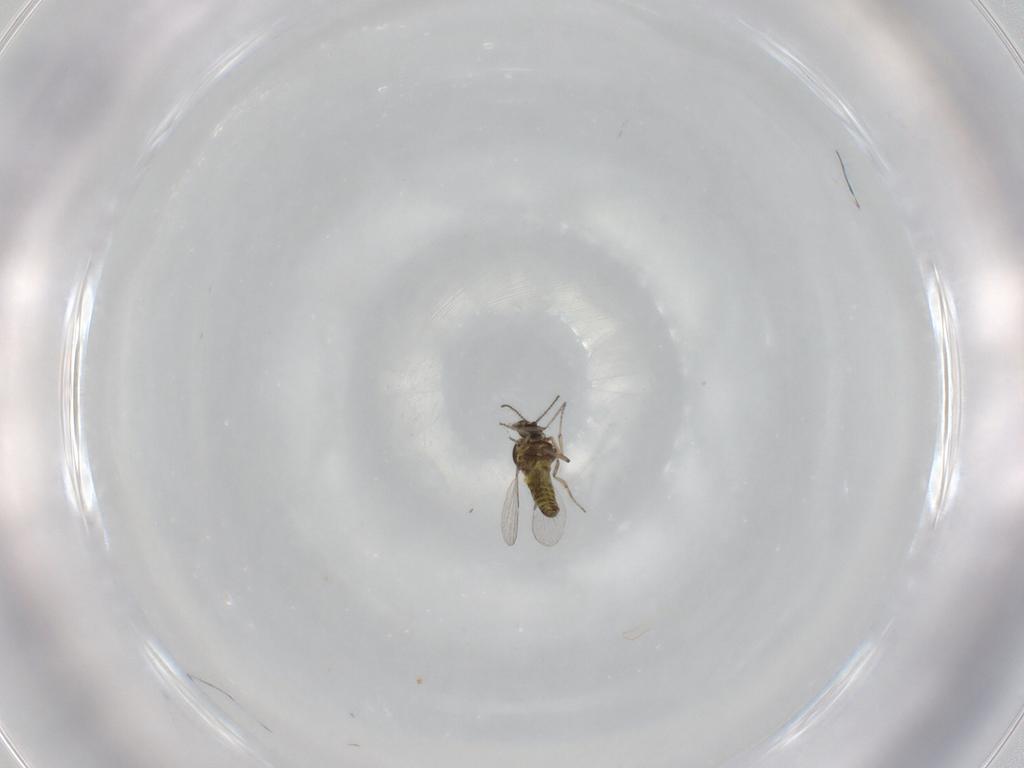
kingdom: Animalia
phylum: Arthropoda
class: Insecta
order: Diptera
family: Ceratopogonidae
